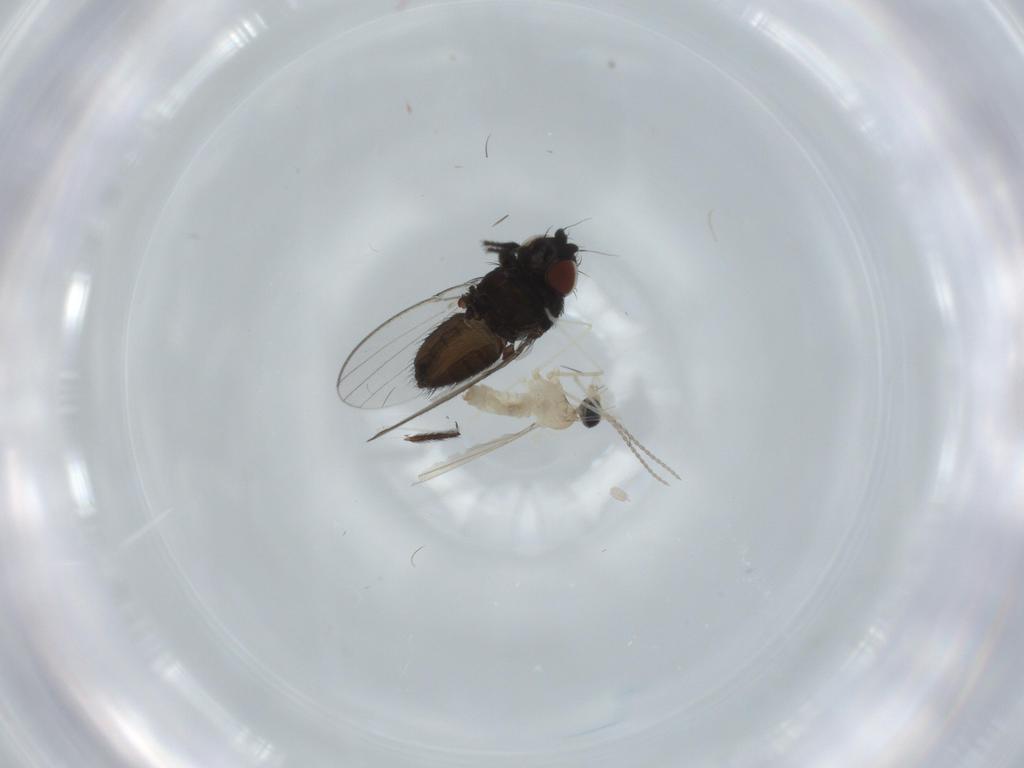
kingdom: Animalia
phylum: Arthropoda
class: Insecta
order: Diptera
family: Cecidomyiidae
